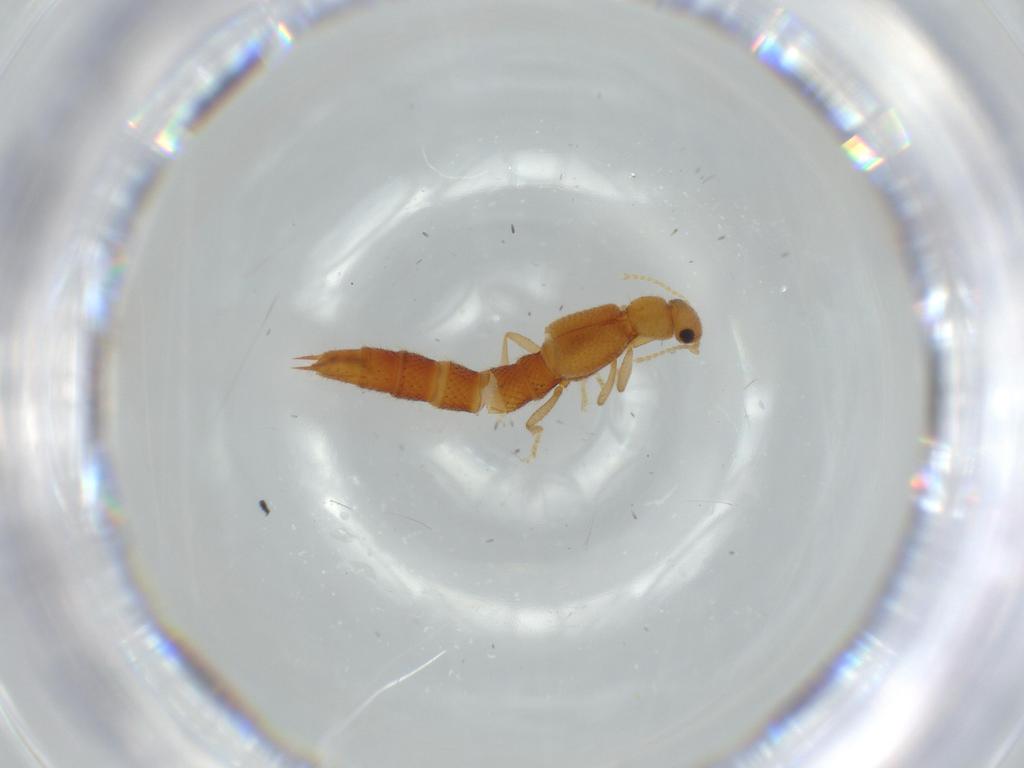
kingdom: Animalia
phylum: Arthropoda
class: Insecta
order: Coleoptera
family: Staphylinidae
